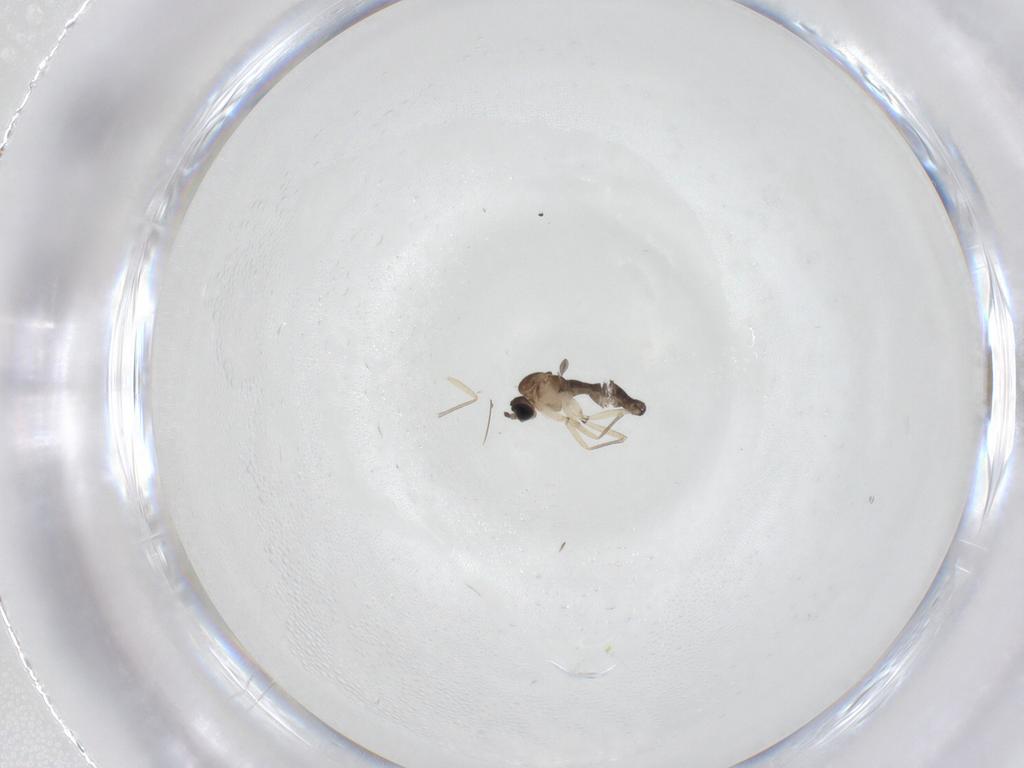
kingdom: Animalia
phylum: Arthropoda
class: Insecta
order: Diptera
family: Sciaridae
